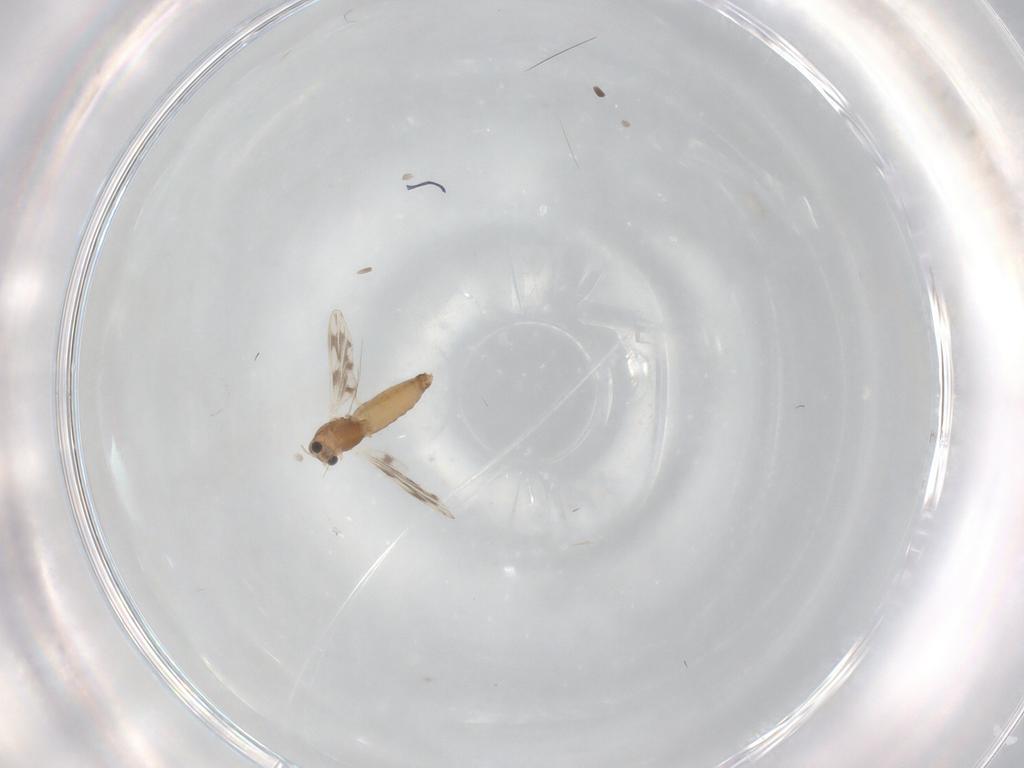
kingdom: Animalia
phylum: Arthropoda
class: Insecta
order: Diptera
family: Chironomidae
